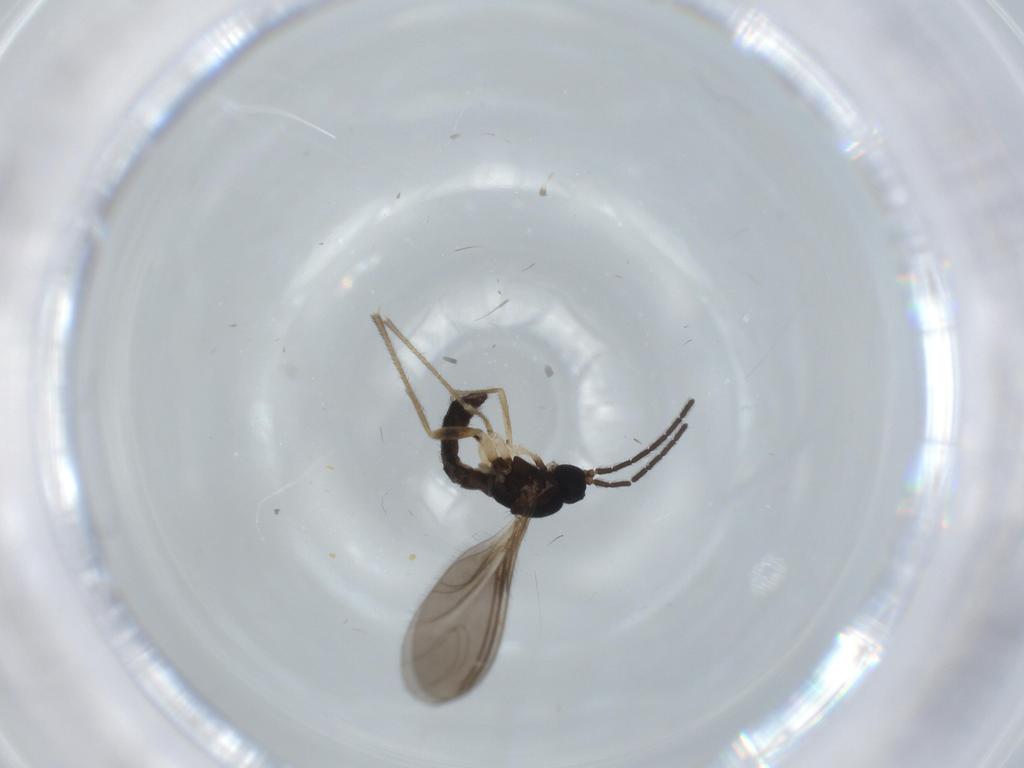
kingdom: Animalia
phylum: Arthropoda
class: Insecta
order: Diptera
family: Sciaridae
